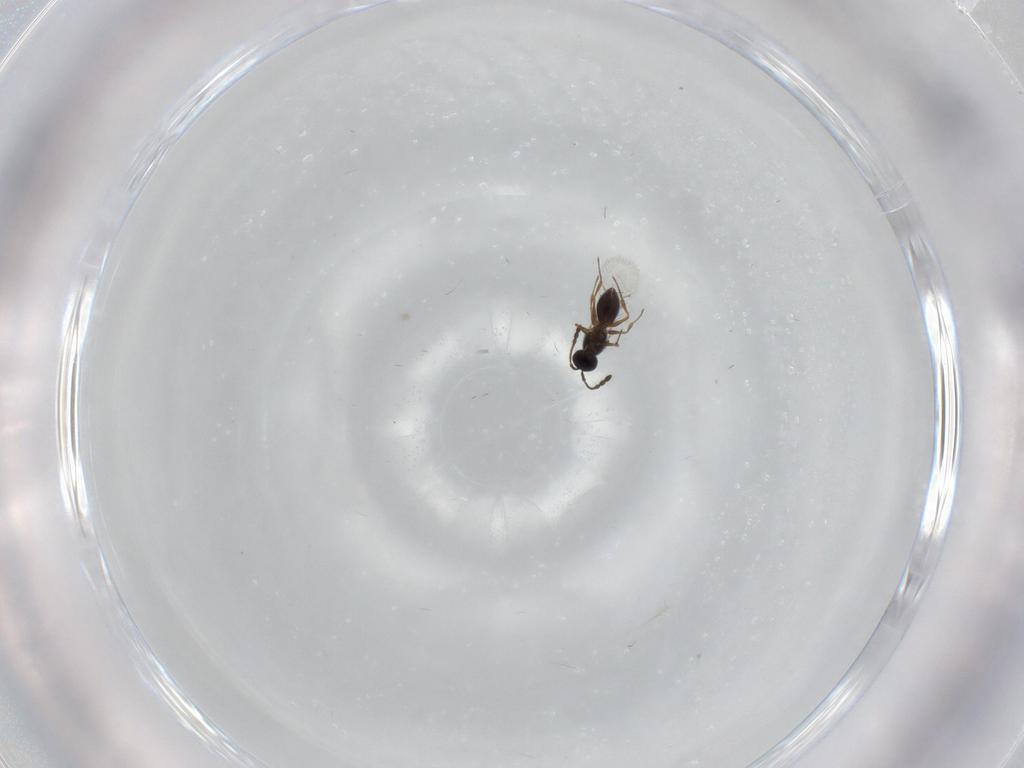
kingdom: Animalia
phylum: Arthropoda
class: Insecta
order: Hymenoptera
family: Figitidae
